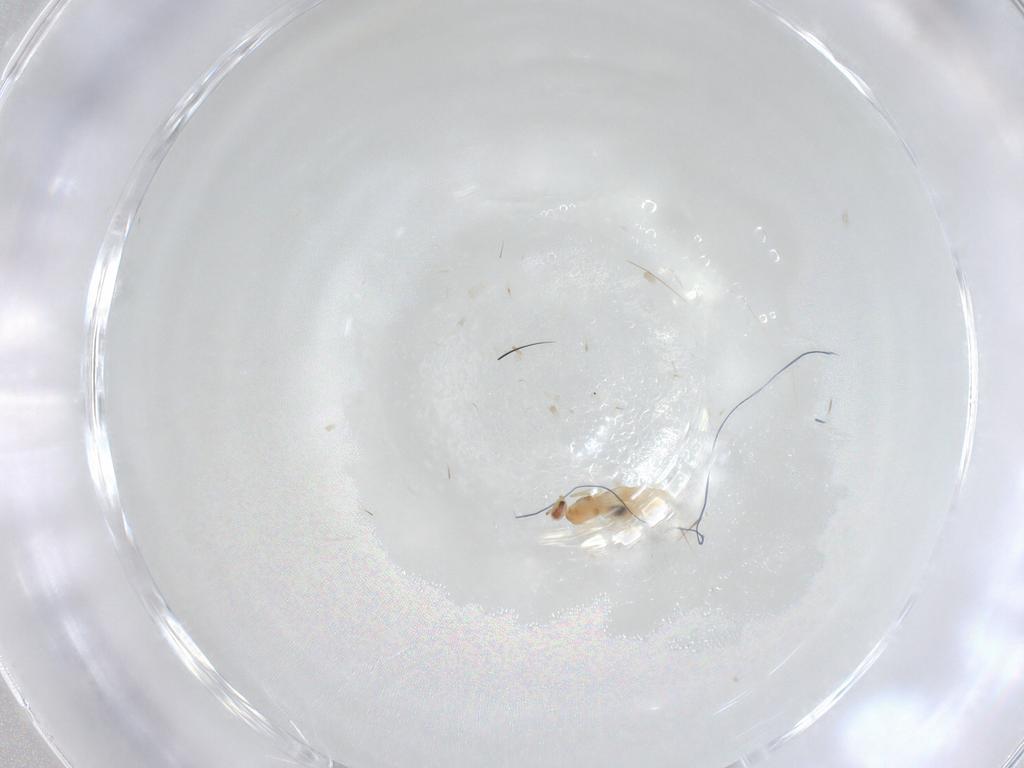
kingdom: Animalia
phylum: Arthropoda
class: Insecta
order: Diptera
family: Cecidomyiidae
